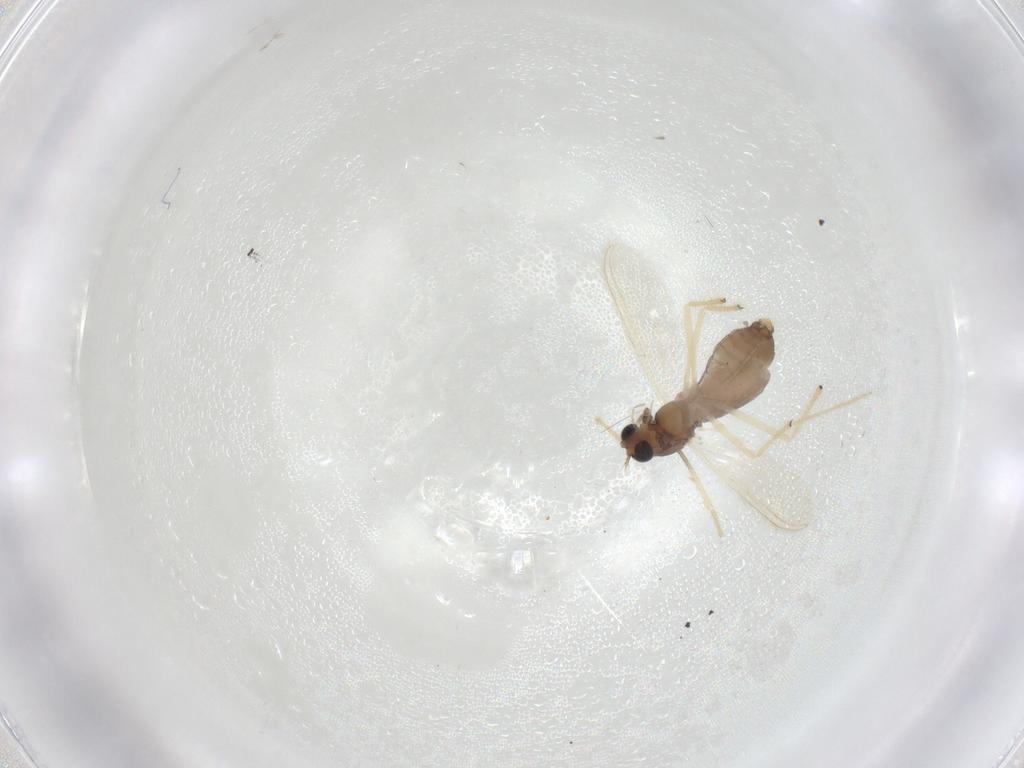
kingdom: Animalia
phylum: Arthropoda
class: Insecta
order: Diptera
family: Chironomidae
